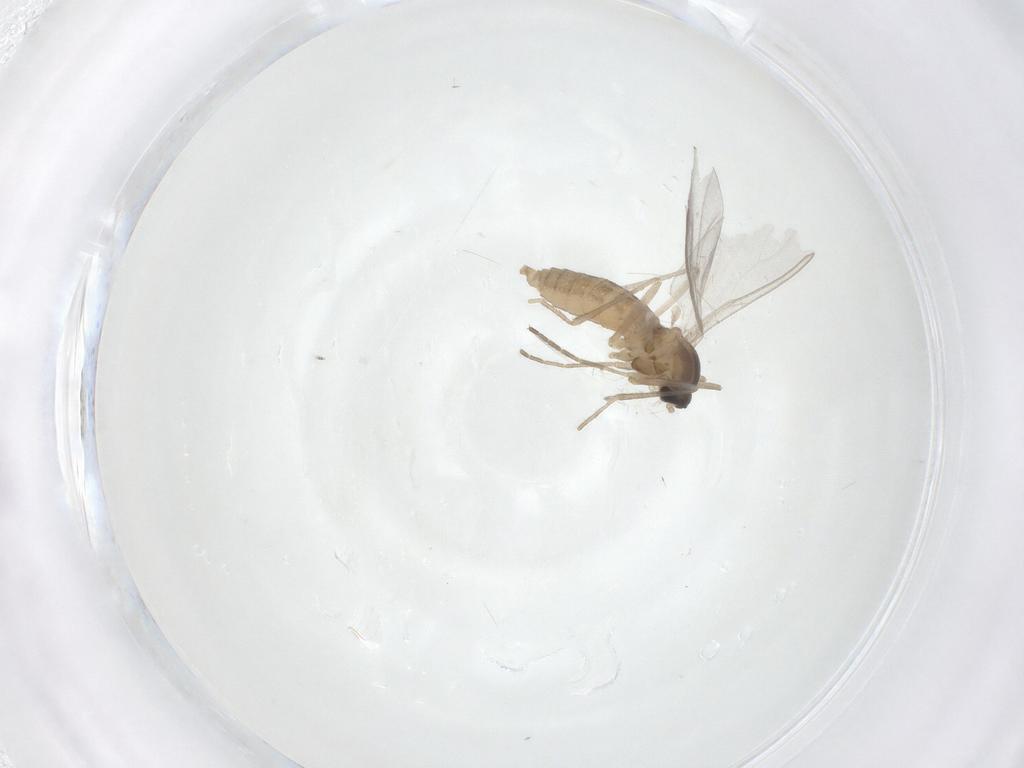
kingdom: Animalia
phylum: Arthropoda
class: Insecta
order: Diptera
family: Cecidomyiidae
